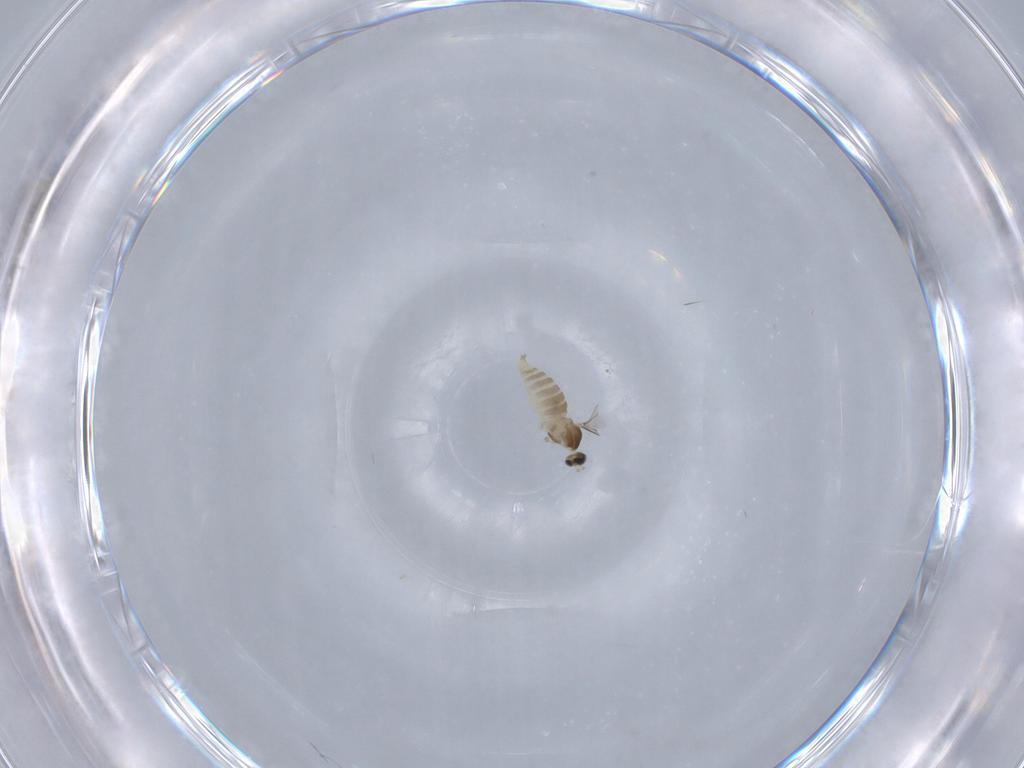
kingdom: Animalia
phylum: Arthropoda
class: Insecta
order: Diptera
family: Cecidomyiidae
